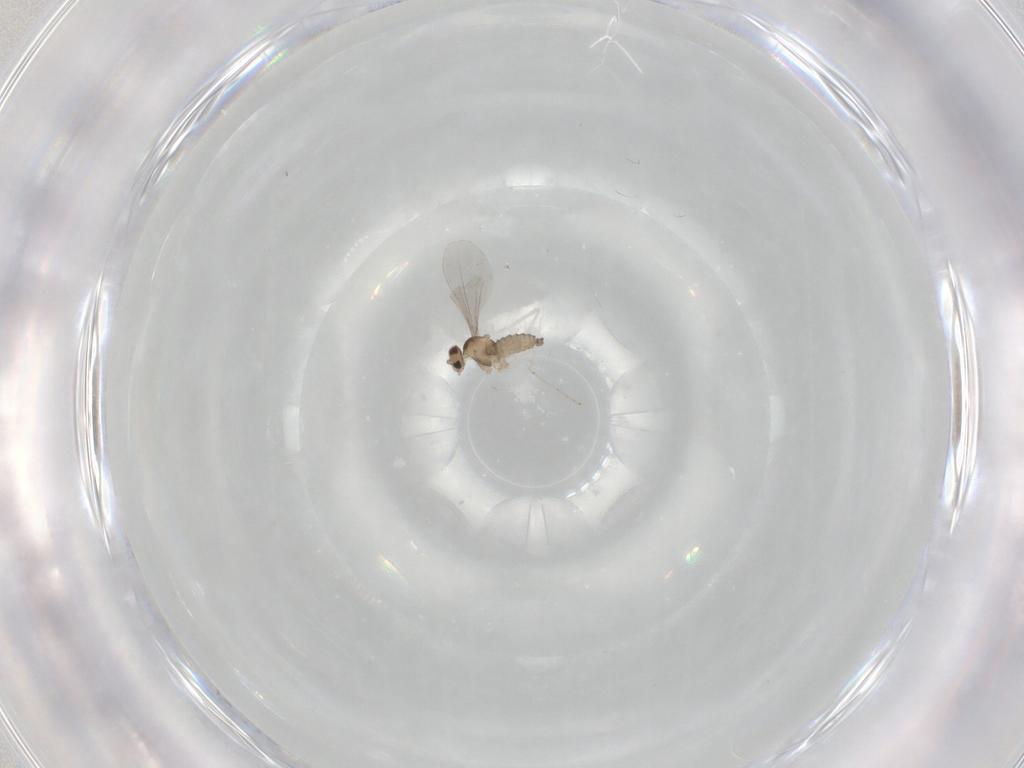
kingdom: Animalia
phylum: Arthropoda
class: Insecta
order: Diptera
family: Cecidomyiidae
